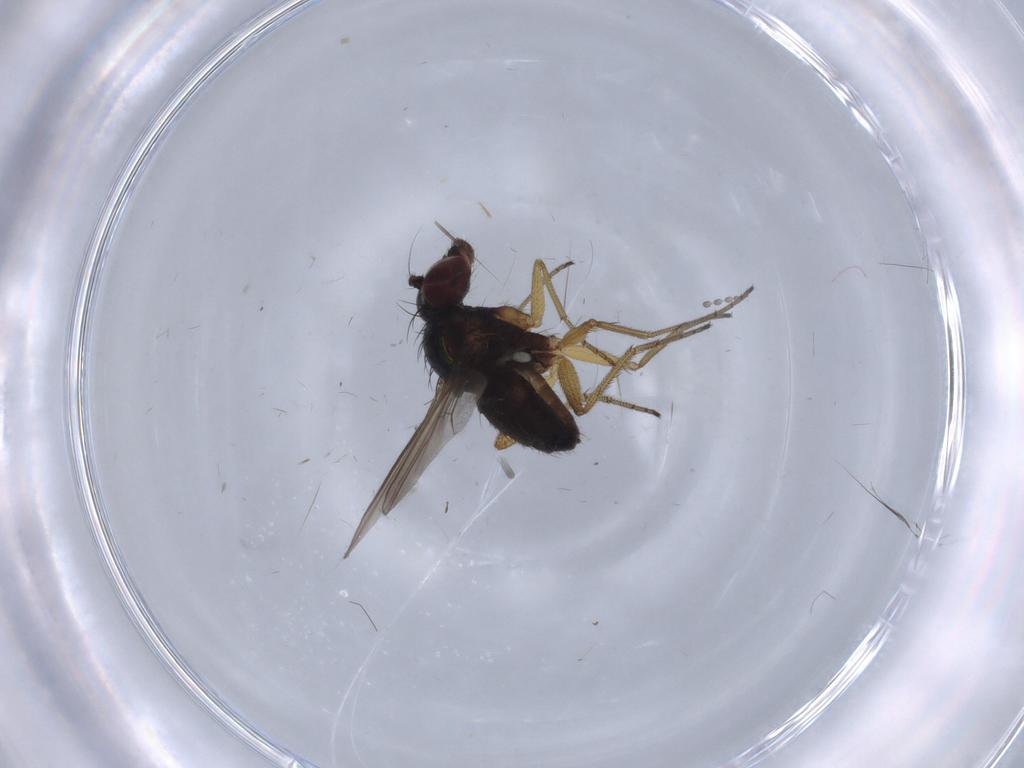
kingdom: Animalia
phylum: Arthropoda
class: Insecta
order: Diptera
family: Dolichopodidae
